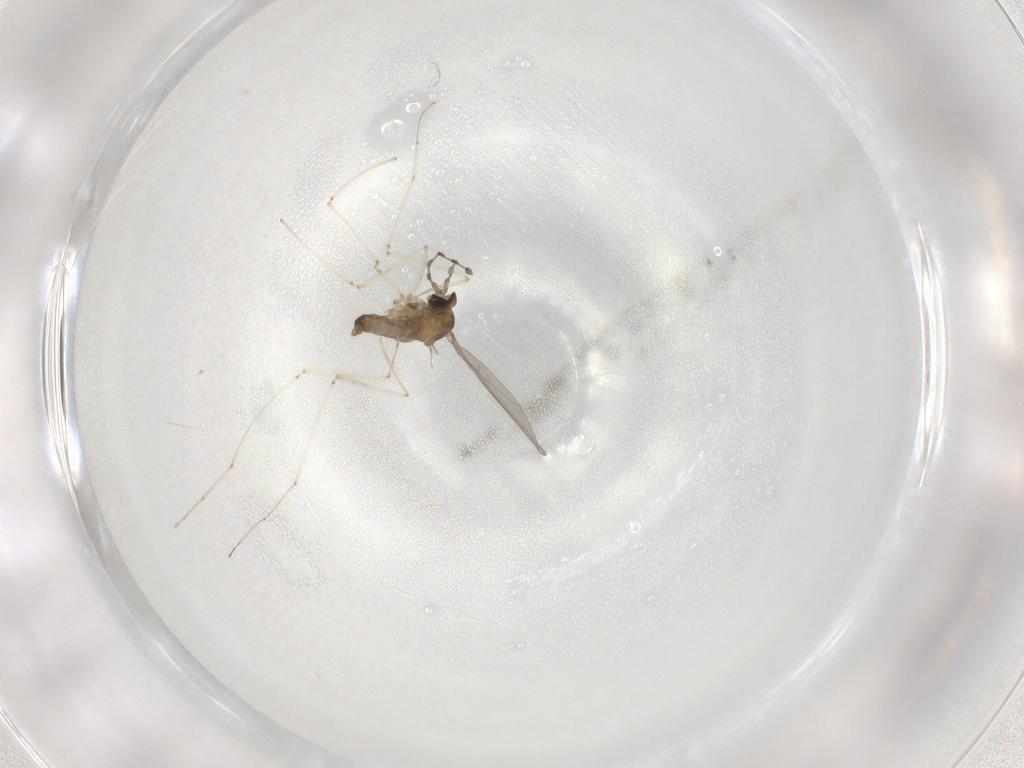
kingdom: Animalia
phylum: Arthropoda
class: Insecta
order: Diptera
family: Cecidomyiidae
